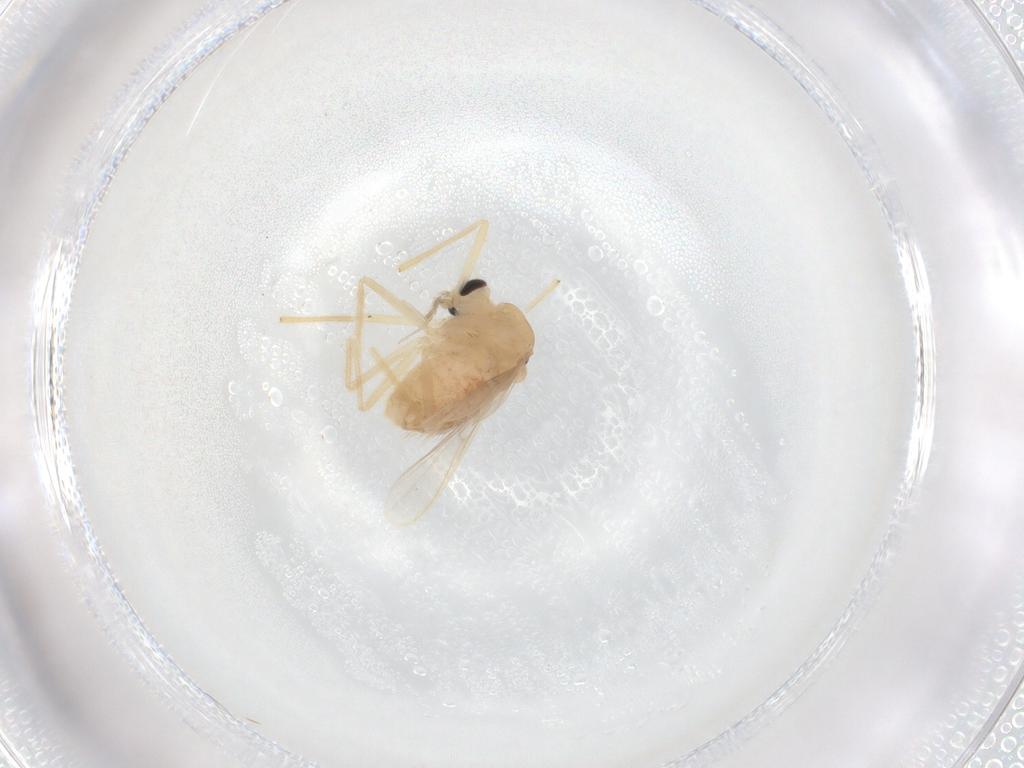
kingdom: Animalia
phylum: Arthropoda
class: Insecta
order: Diptera
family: Chironomidae
